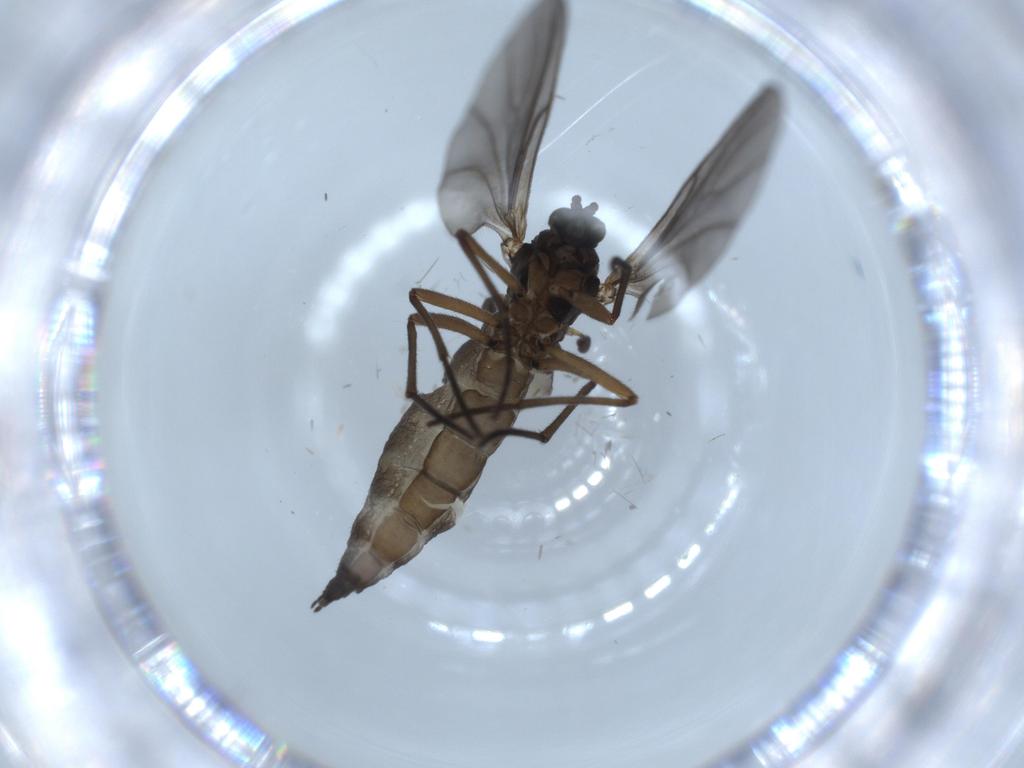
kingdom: Animalia
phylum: Arthropoda
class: Insecta
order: Diptera
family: Sciaridae
